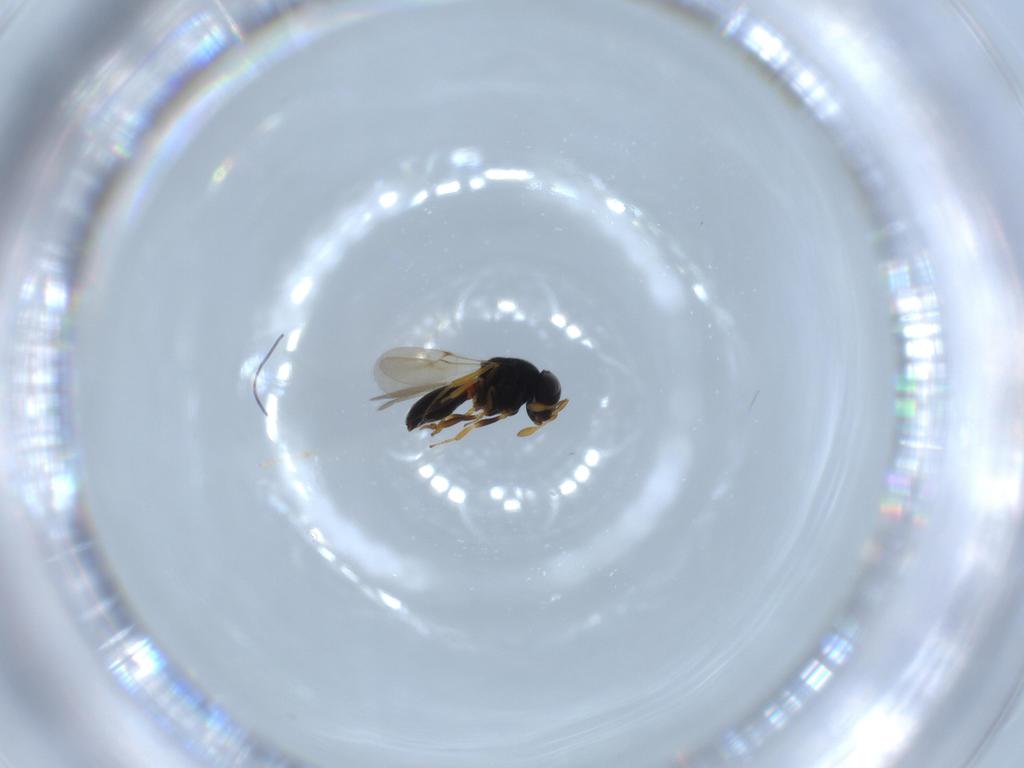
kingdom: Animalia
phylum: Arthropoda
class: Insecta
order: Hymenoptera
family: Scelionidae
